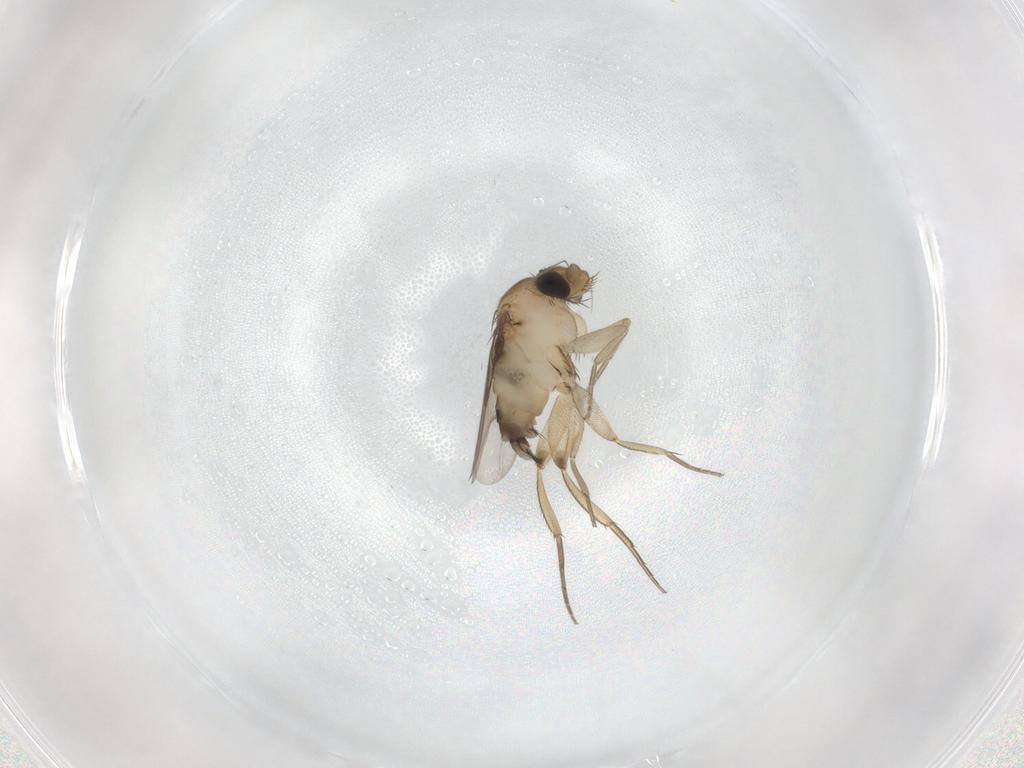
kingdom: Animalia
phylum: Arthropoda
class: Insecta
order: Diptera
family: Phoridae
